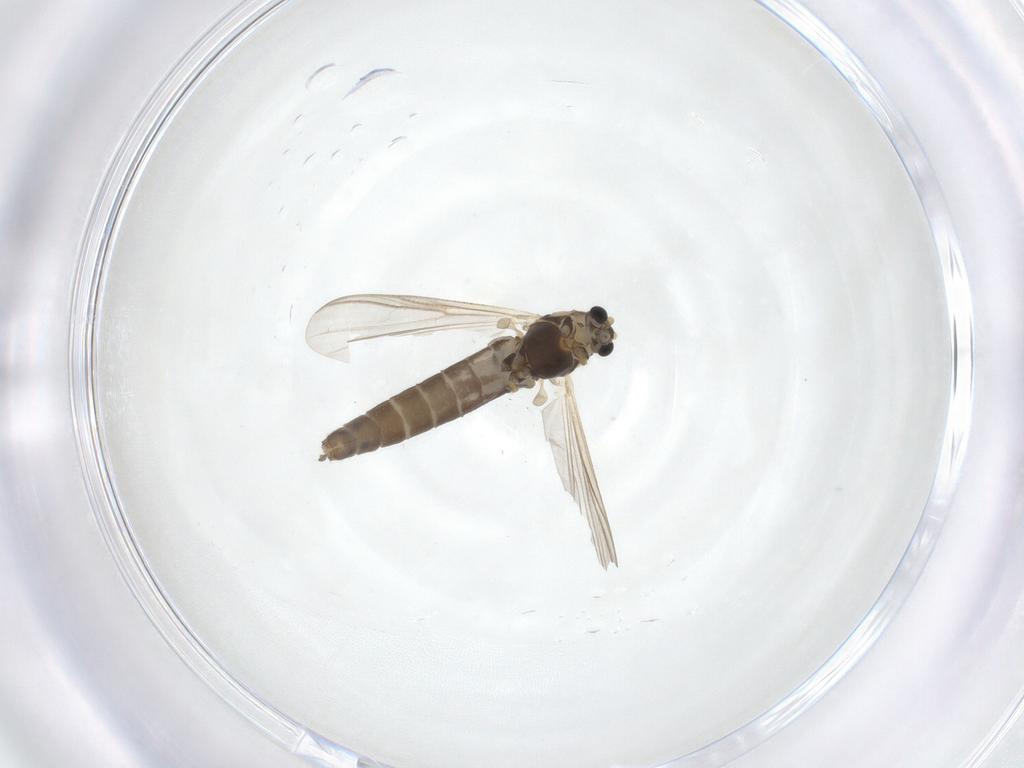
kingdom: Animalia
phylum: Arthropoda
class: Insecta
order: Diptera
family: Chironomidae
